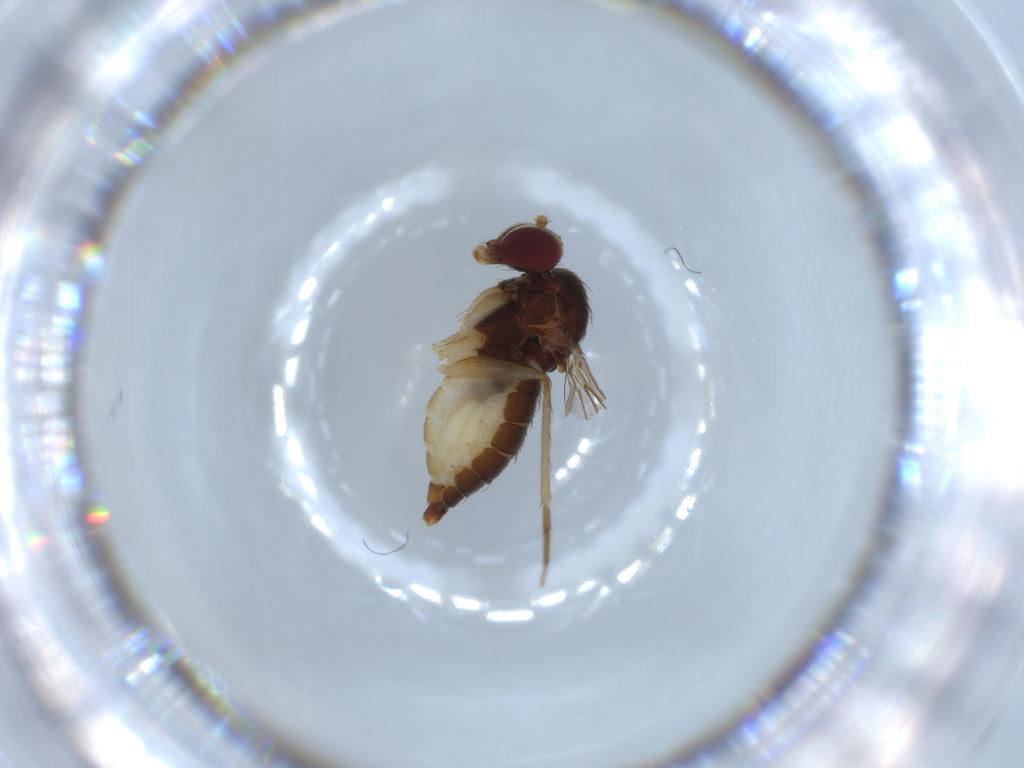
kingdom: Animalia
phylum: Arthropoda
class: Insecta
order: Diptera
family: Dolichopodidae
